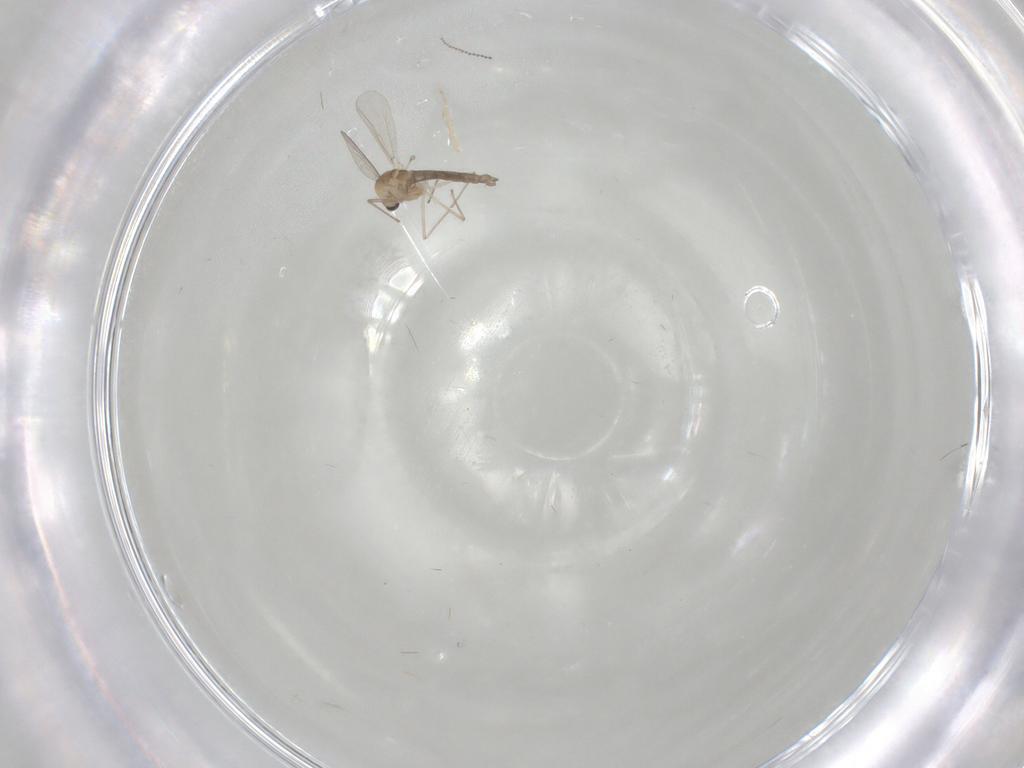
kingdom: Animalia
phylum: Arthropoda
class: Insecta
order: Diptera
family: Chironomidae
